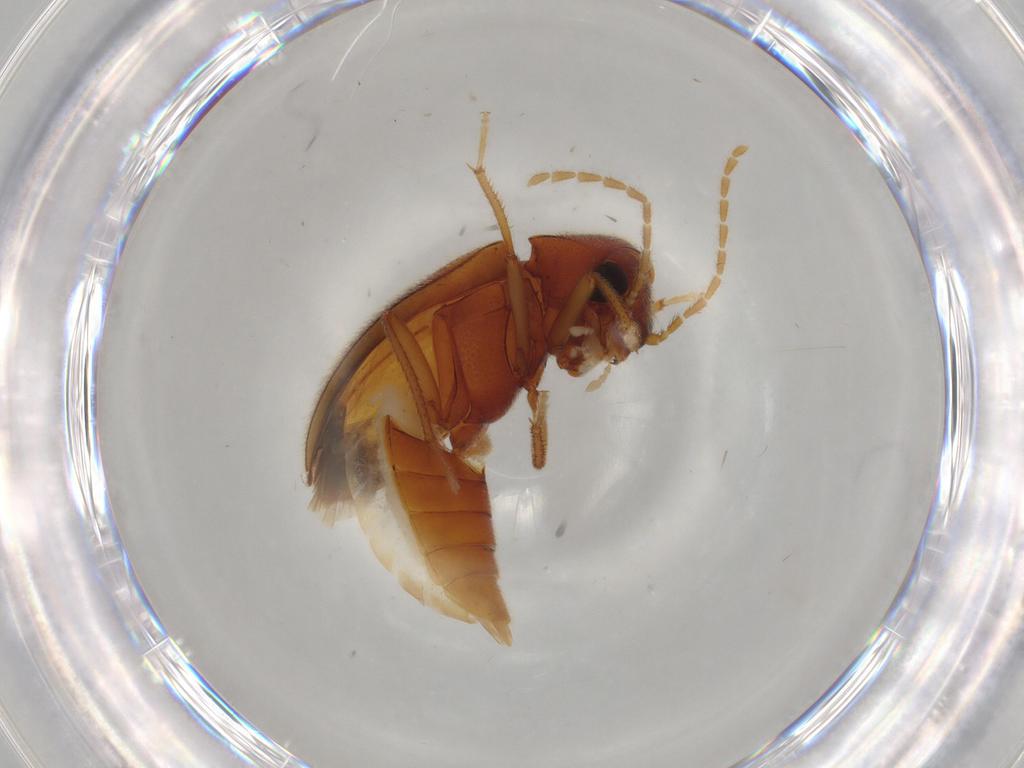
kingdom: Animalia
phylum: Arthropoda
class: Insecta
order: Coleoptera
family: Ptilodactylidae
